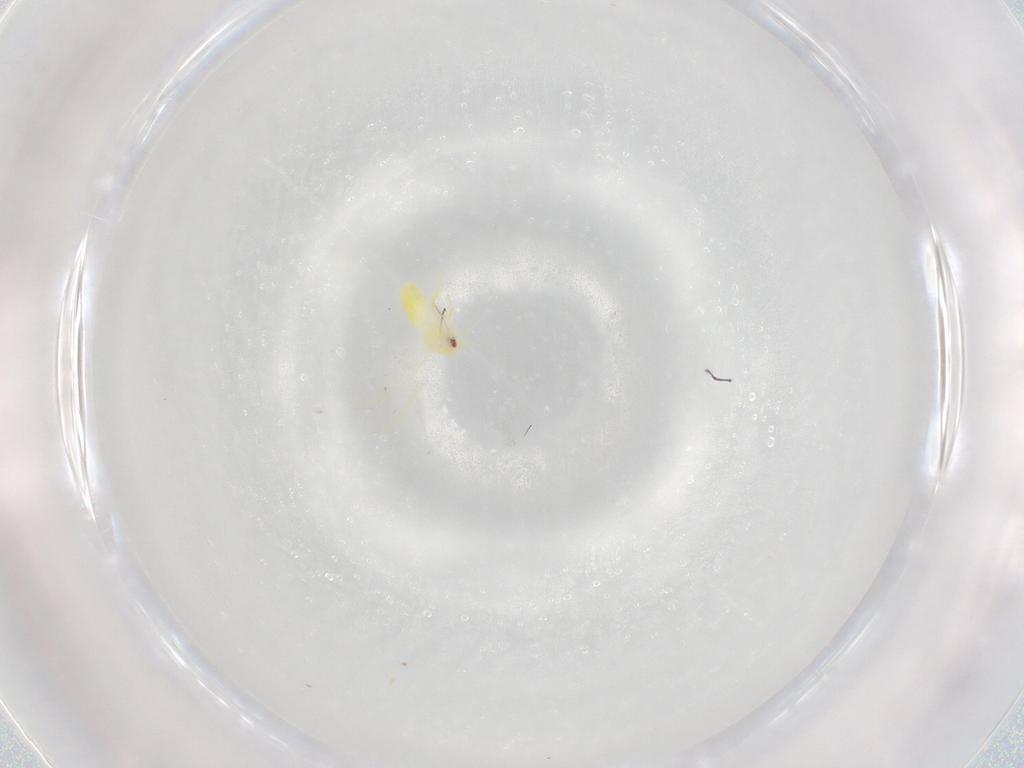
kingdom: Animalia
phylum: Arthropoda
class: Insecta
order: Hemiptera
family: Aleyrodidae
